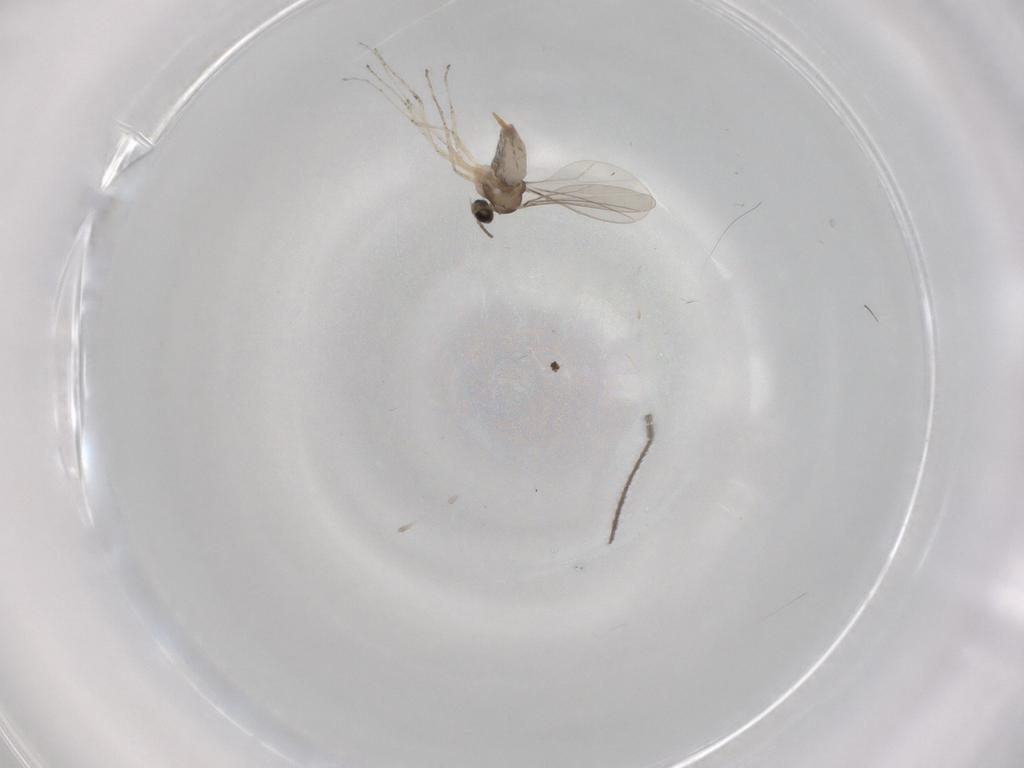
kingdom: Animalia
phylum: Arthropoda
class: Insecta
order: Diptera
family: Cecidomyiidae
